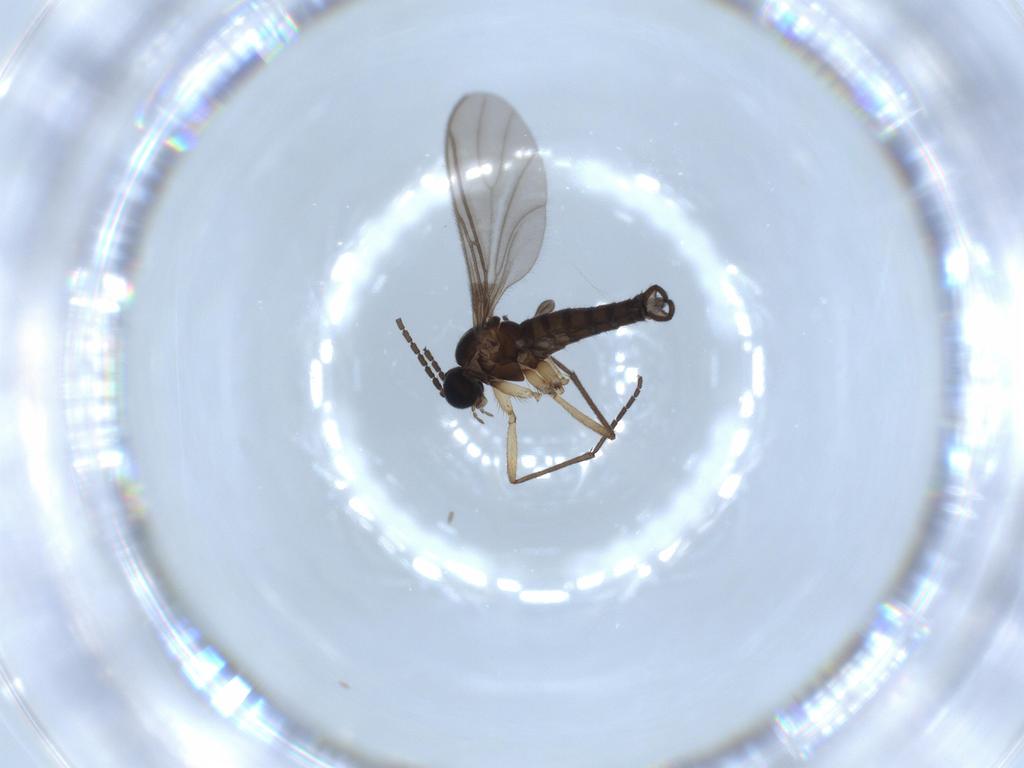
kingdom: Animalia
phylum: Arthropoda
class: Insecta
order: Diptera
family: Sciaridae
